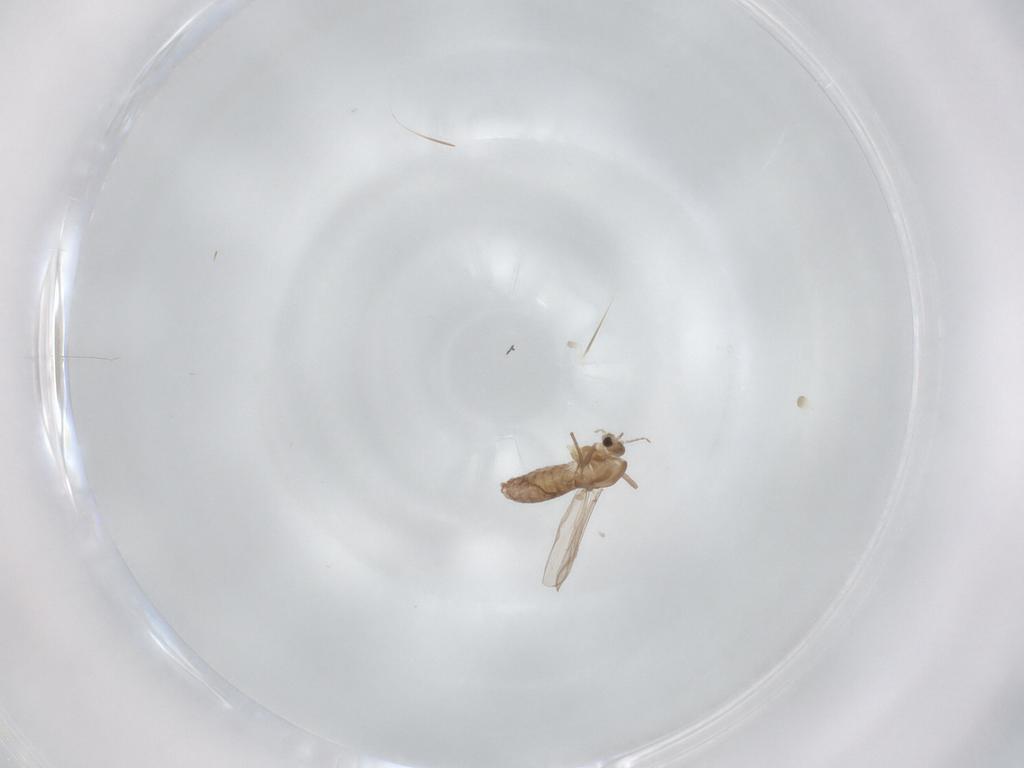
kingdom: Animalia
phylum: Arthropoda
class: Insecta
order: Diptera
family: Chironomidae
